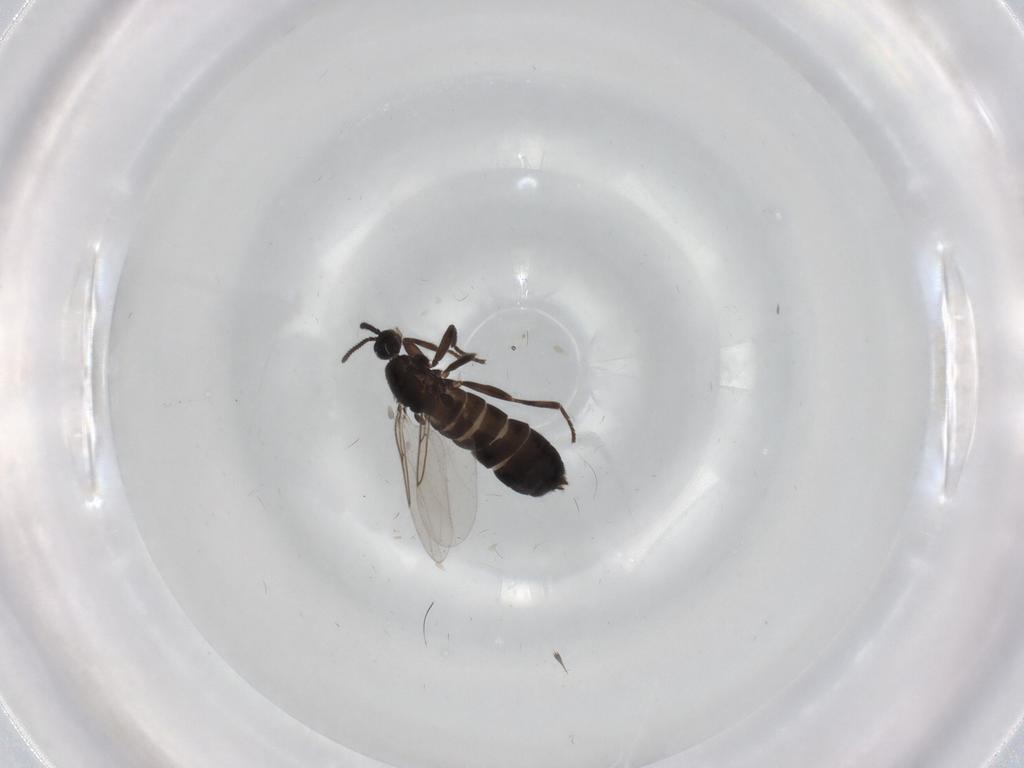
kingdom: Animalia
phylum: Arthropoda
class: Insecta
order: Diptera
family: Scatopsidae
